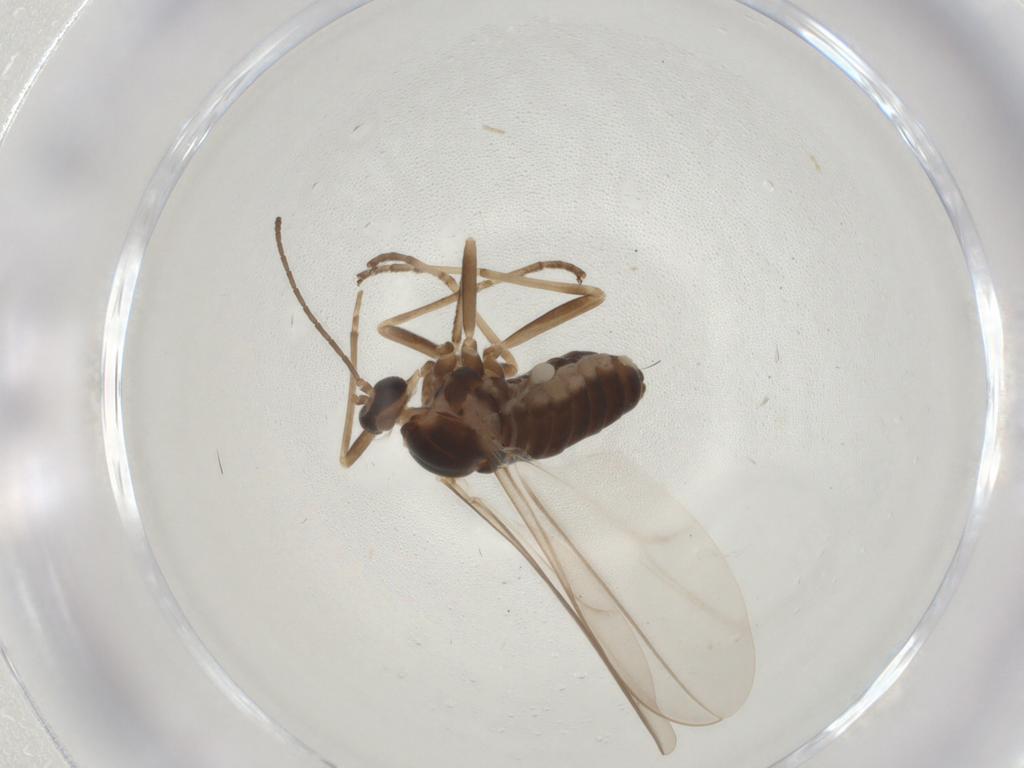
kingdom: Animalia
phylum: Arthropoda
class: Insecta
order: Diptera
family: Cecidomyiidae
